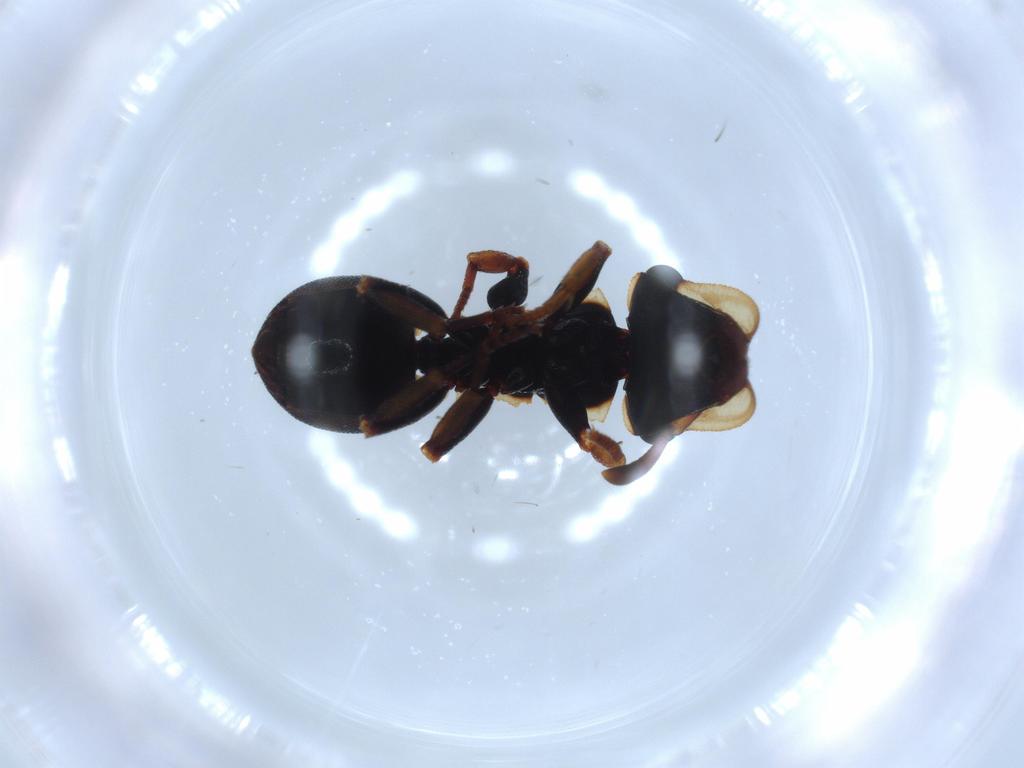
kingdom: Animalia
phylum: Arthropoda
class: Insecta
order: Hymenoptera
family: Formicidae
